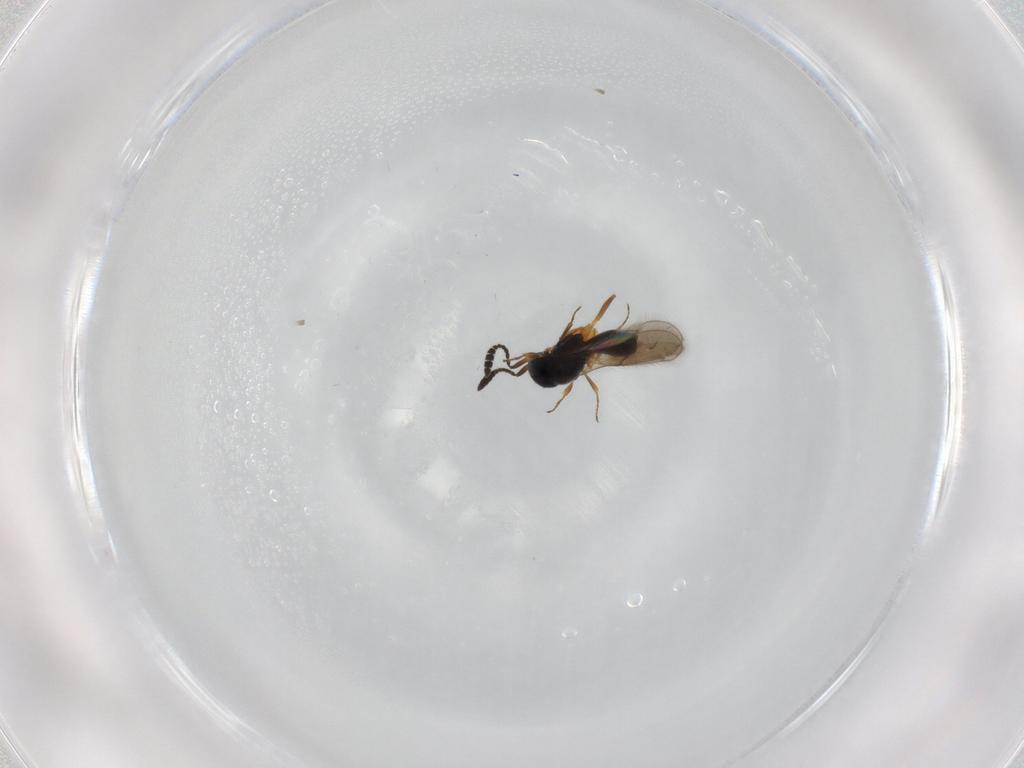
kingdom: Animalia
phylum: Arthropoda
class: Insecta
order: Hymenoptera
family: Scelionidae
